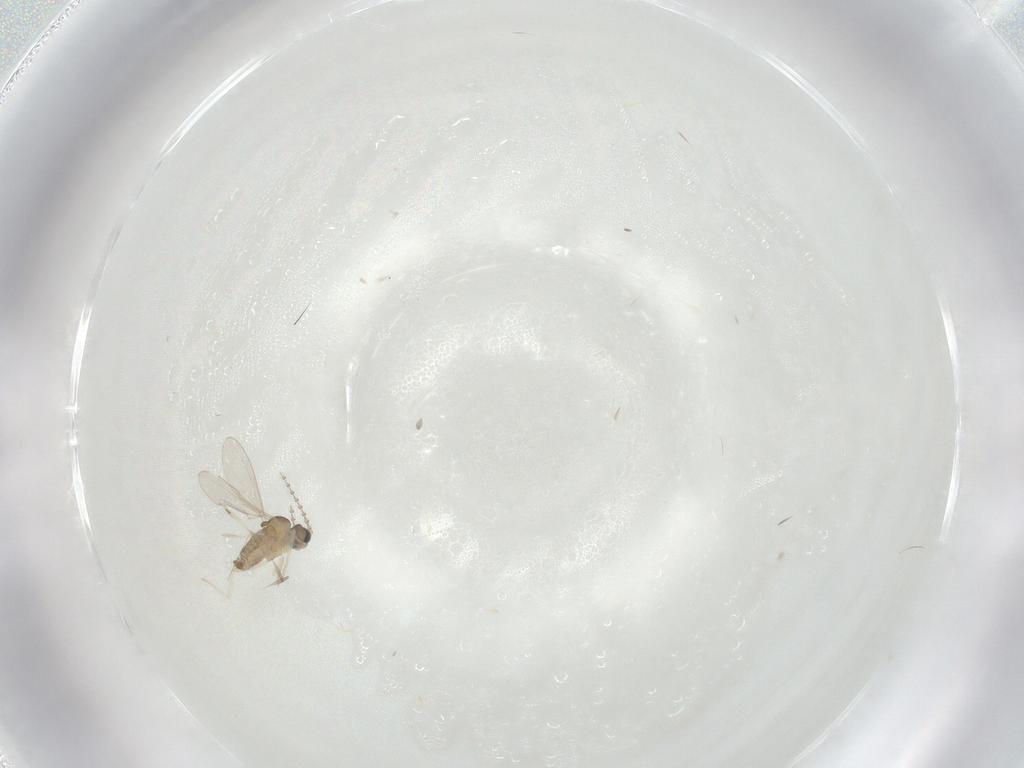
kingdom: Animalia
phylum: Arthropoda
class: Insecta
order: Diptera
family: Cecidomyiidae
